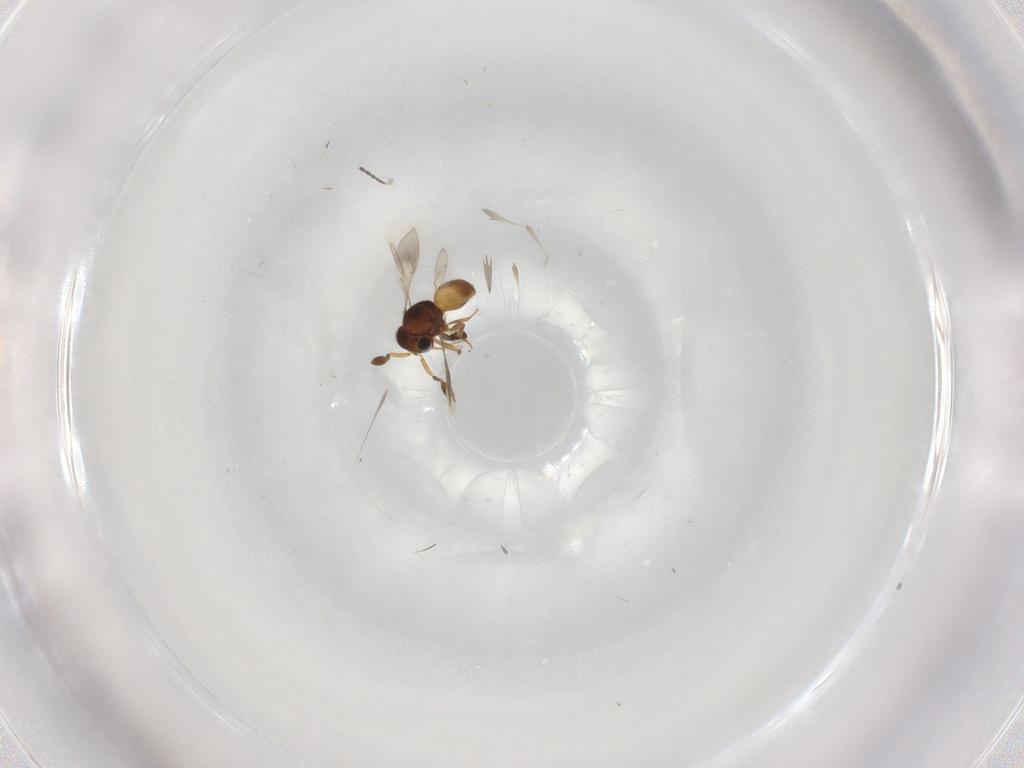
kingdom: Animalia
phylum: Arthropoda
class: Insecta
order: Hymenoptera
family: Scelionidae
